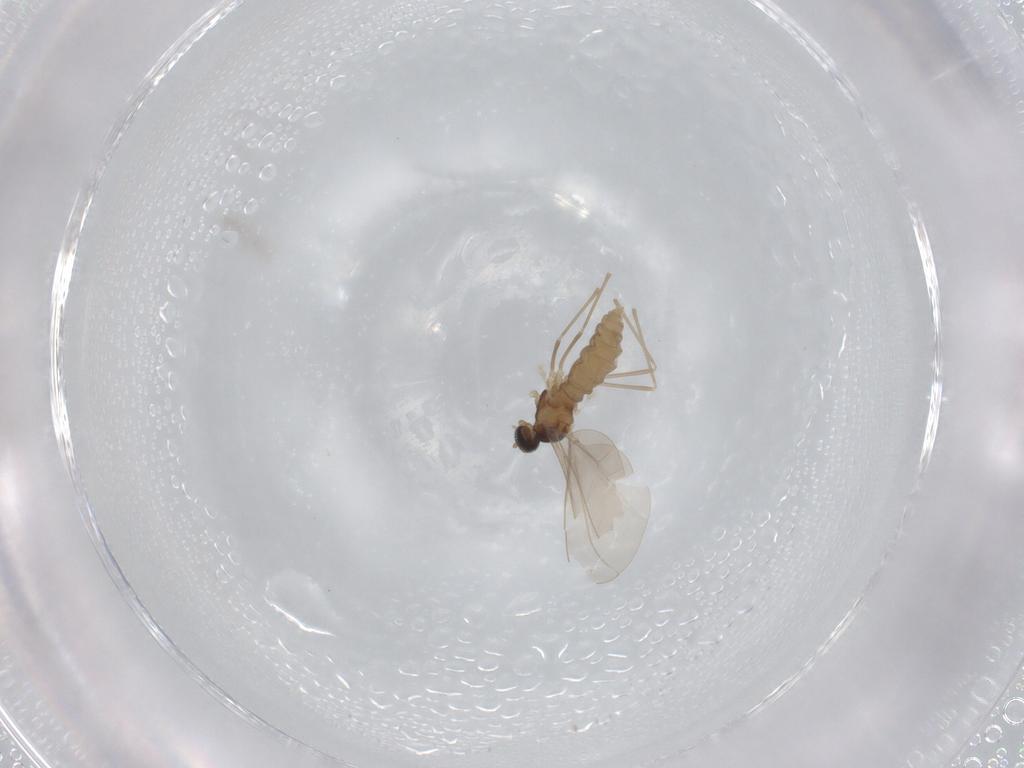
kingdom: Animalia
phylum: Arthropoda
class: Insecta
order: Diptera
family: Cecidomyiidae
